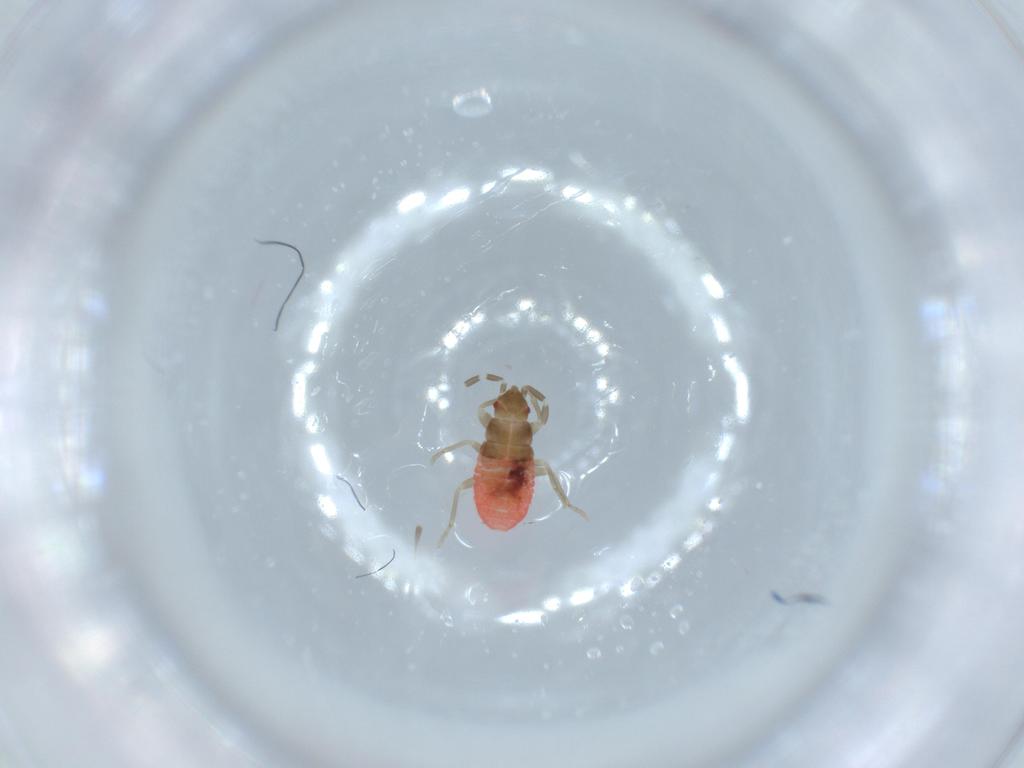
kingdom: Animalia
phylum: Arthropoda
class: Insecta
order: Hemiptera
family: Rhyparochromidae
